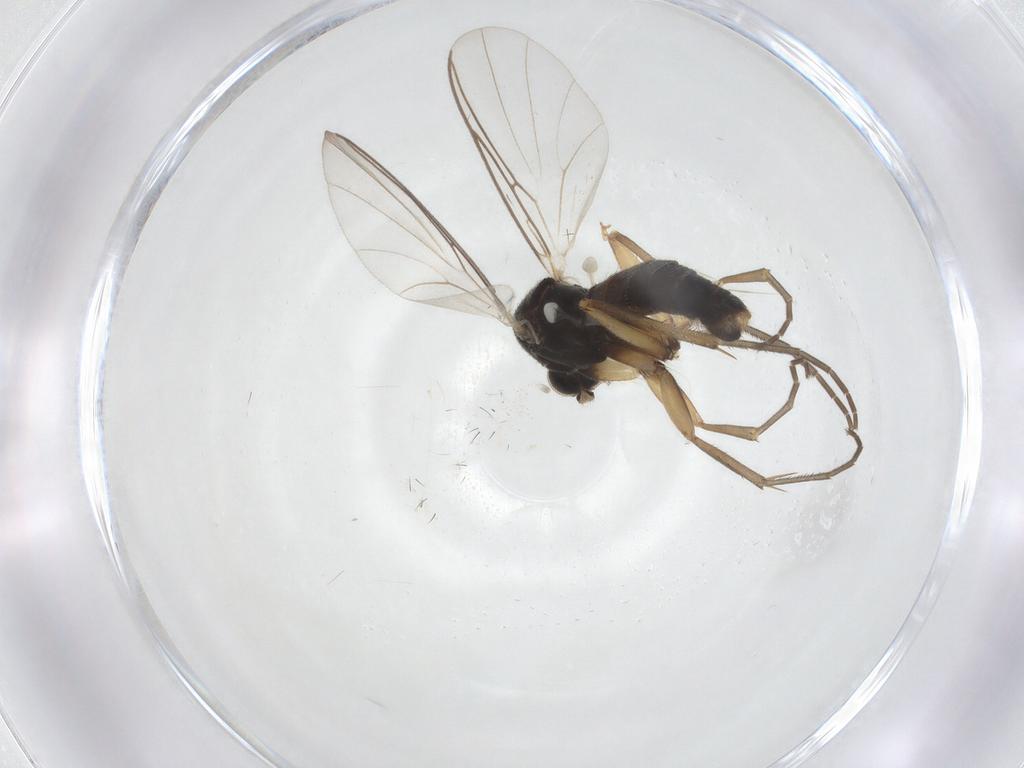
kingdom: Animalia
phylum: Arthropoda
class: Insecta
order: Diptera
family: Mycetophilidae
